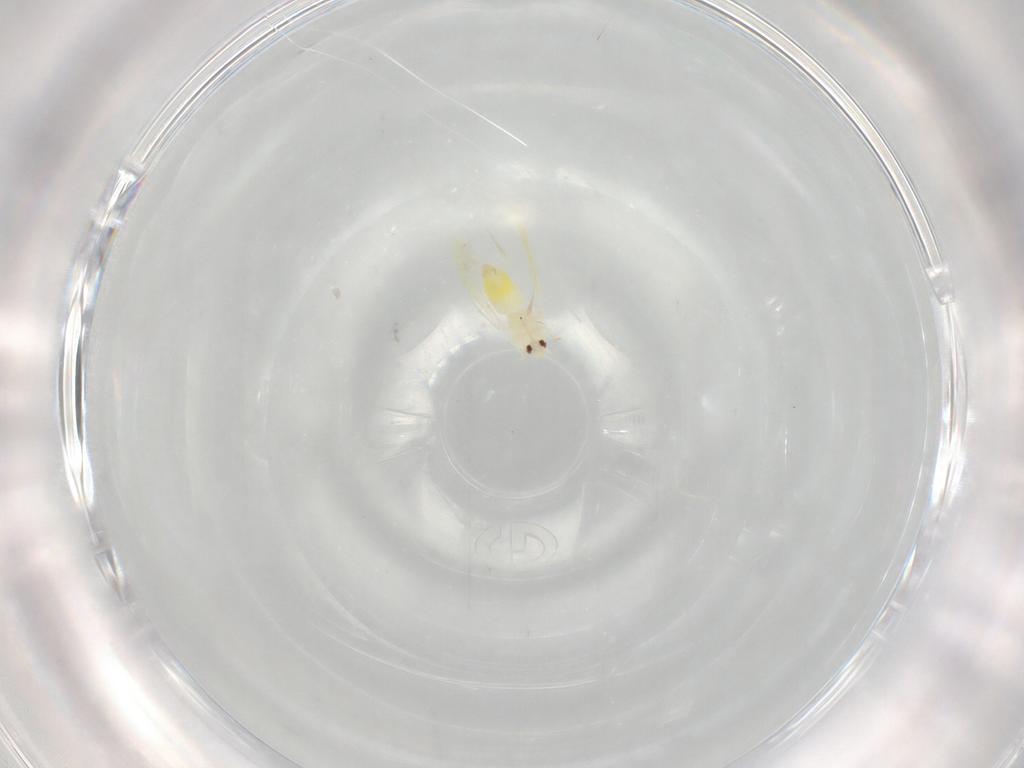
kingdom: Animalia
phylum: Arthropoda
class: Insecta
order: Hemiptera
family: Aleyrodidae
